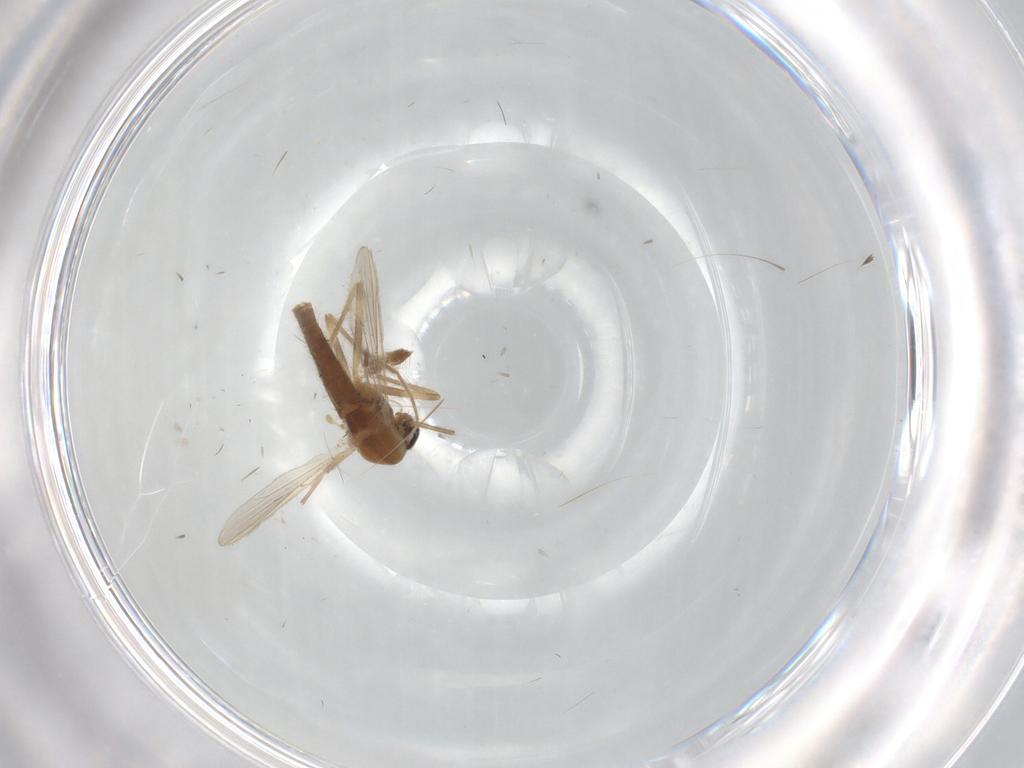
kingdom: Animalia
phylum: Arthropoda
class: Insecta
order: Diptera
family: Chironomidae
